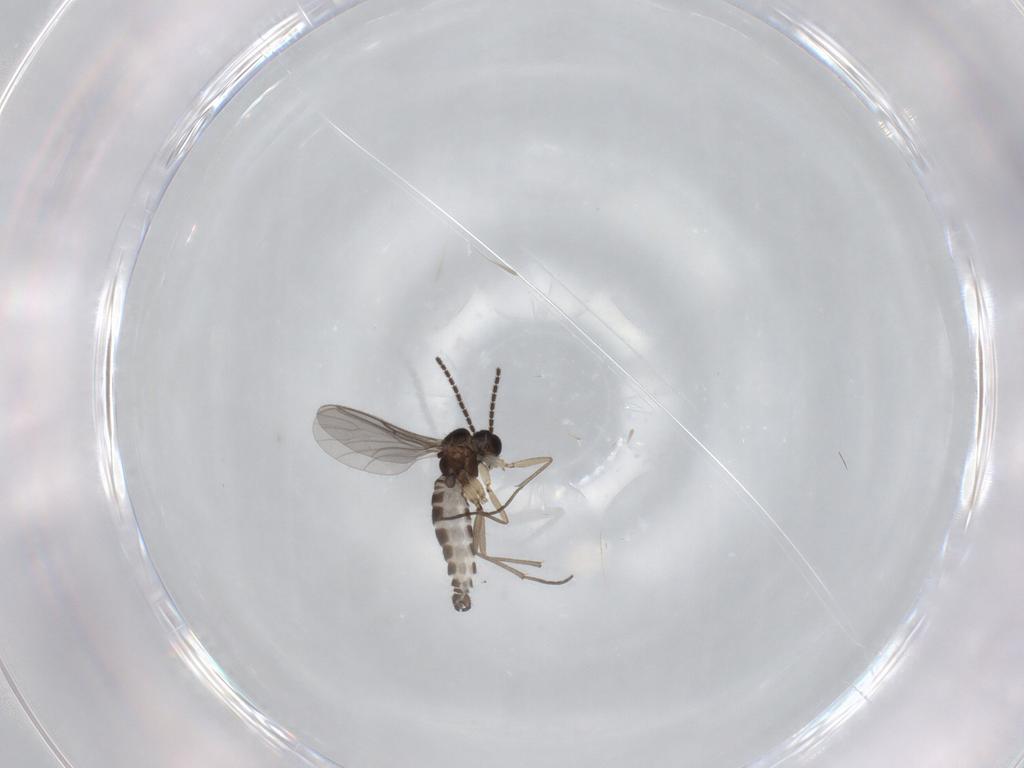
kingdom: Animalia
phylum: Arthropoda
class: Insecta
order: Diptera
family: Sciaridae
